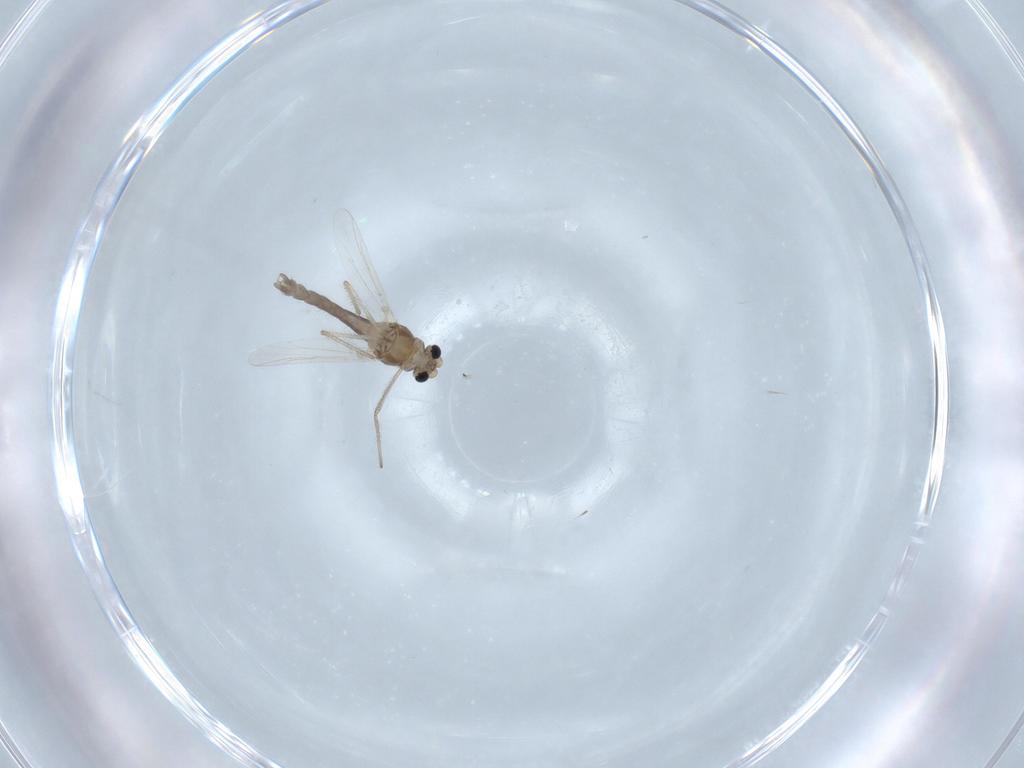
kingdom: Animalia
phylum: Arthropoda
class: Insecta
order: Diptera
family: Chironomidae
